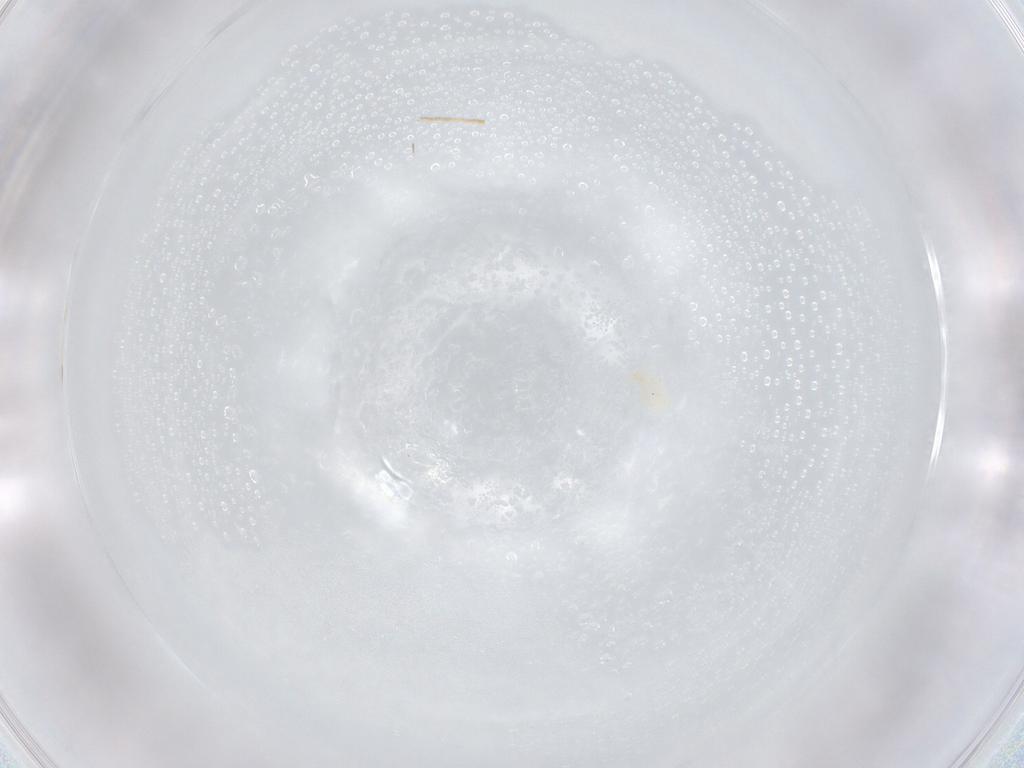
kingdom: Animalia
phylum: Arthropoda
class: Arachnida
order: Trombidiformes
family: Erythraeidae
